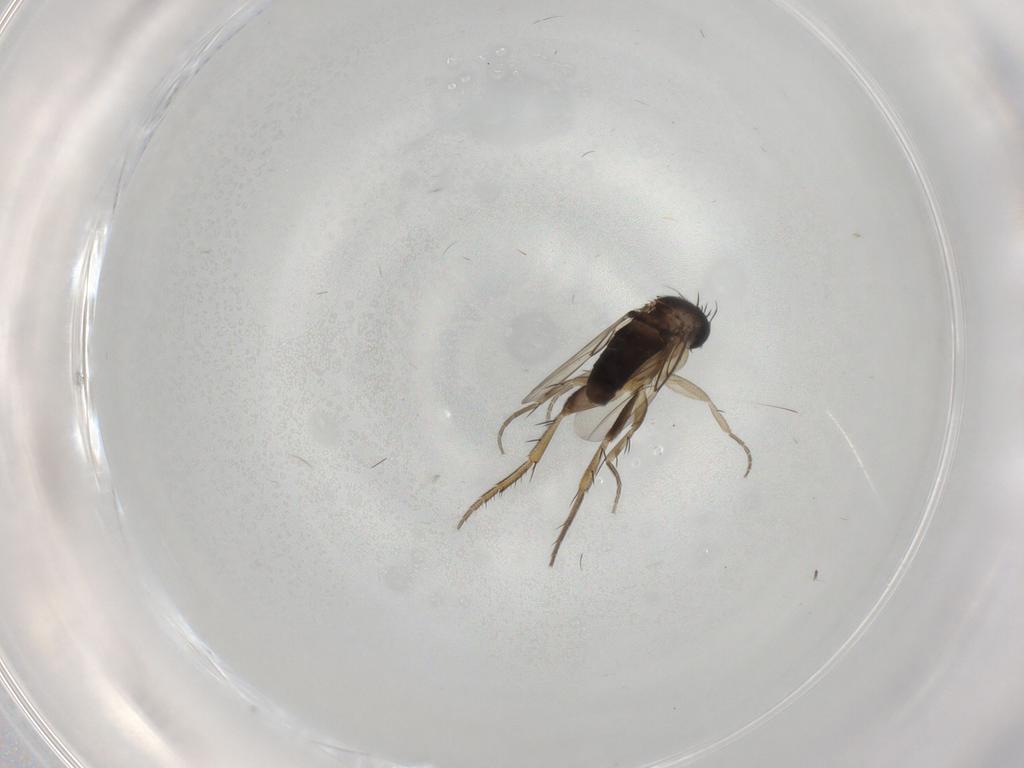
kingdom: Animalia
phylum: Arthropoda
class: Insecta
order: Diptera
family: Phoridae
